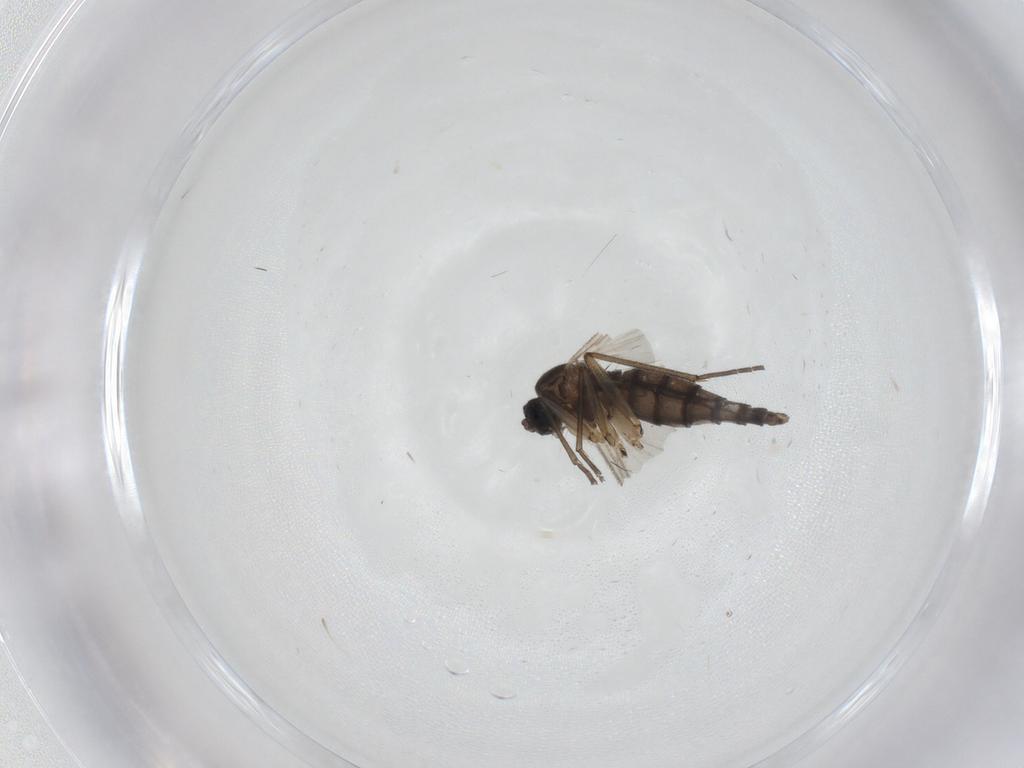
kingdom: Animalia
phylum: Arthropoda
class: Insecta
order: Diptera
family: Sciaridae
